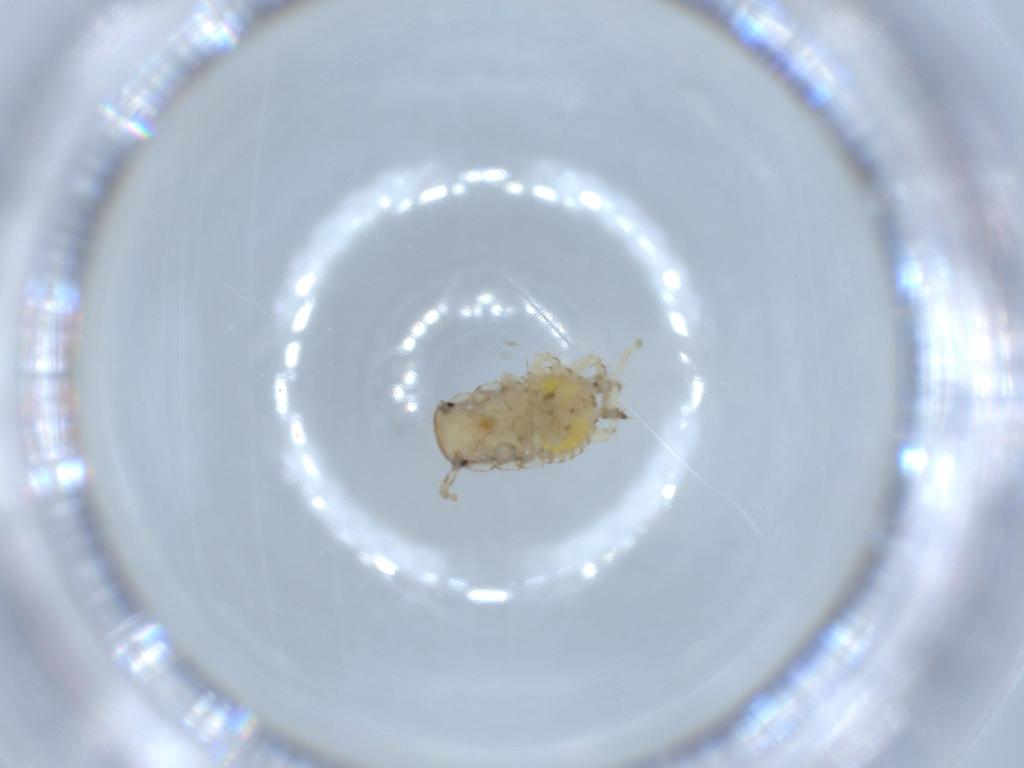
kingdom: Animalia
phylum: Arthropoda
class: Insecta
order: Blattodea
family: Ectobiidae
